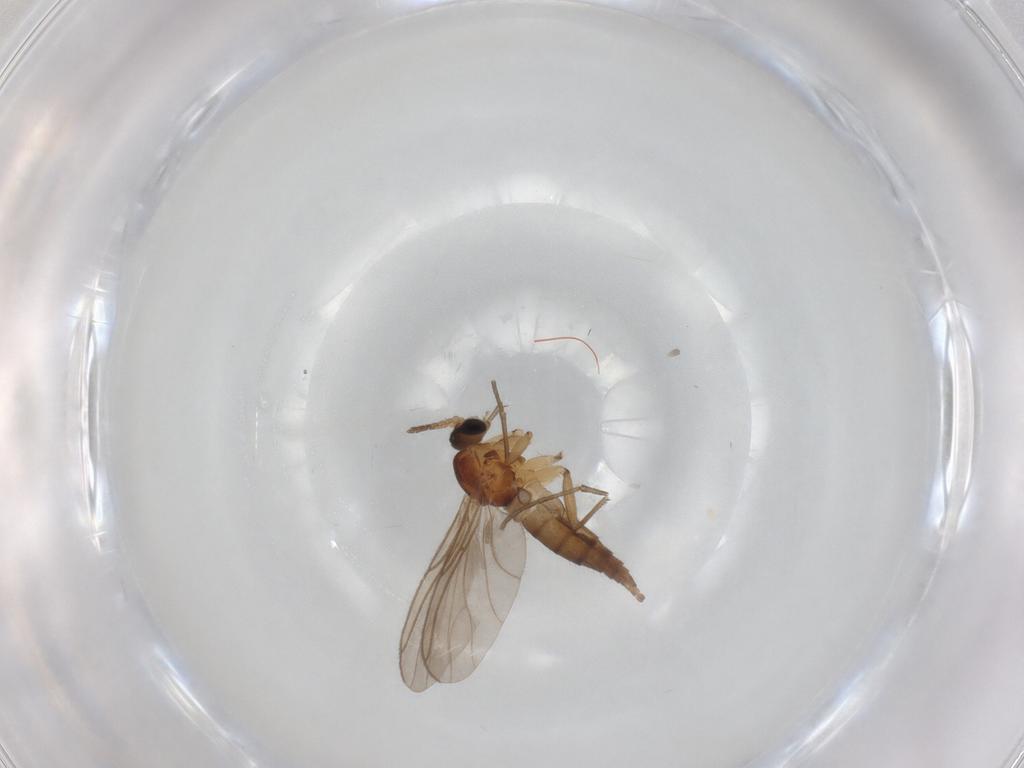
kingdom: Animalia
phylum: Arthropoda
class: Insecta
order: Diptera
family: Sciaridae
